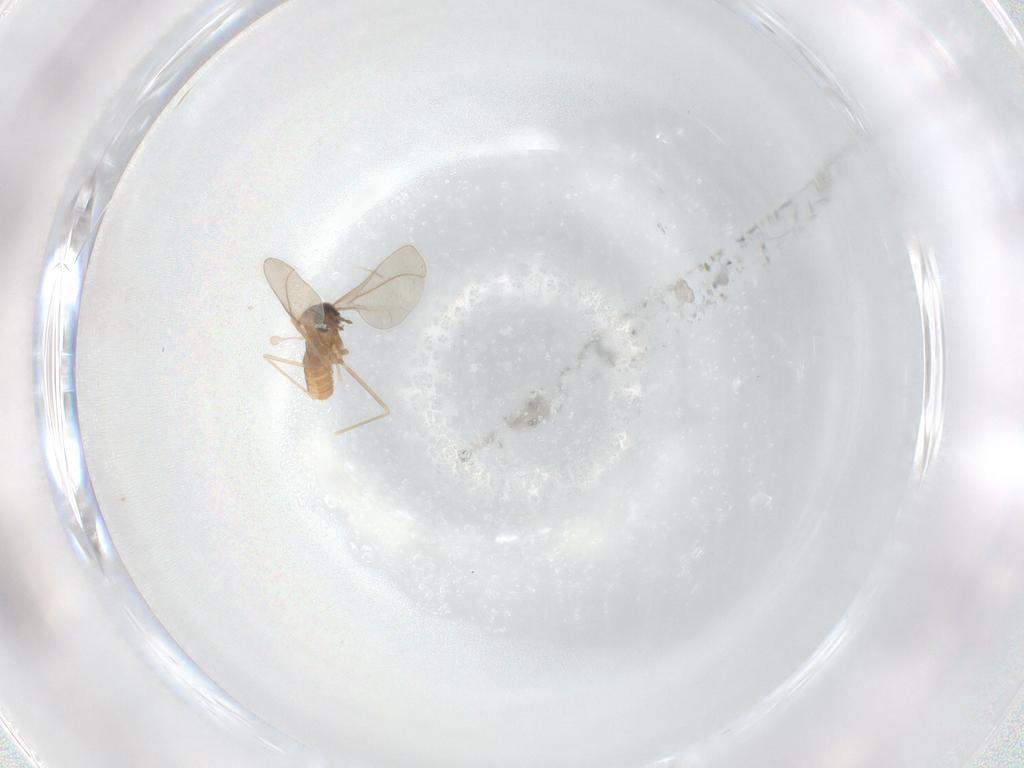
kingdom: Animalia
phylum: Arthropoda
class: Insecta
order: Diptera
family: Cecidomyiidae
